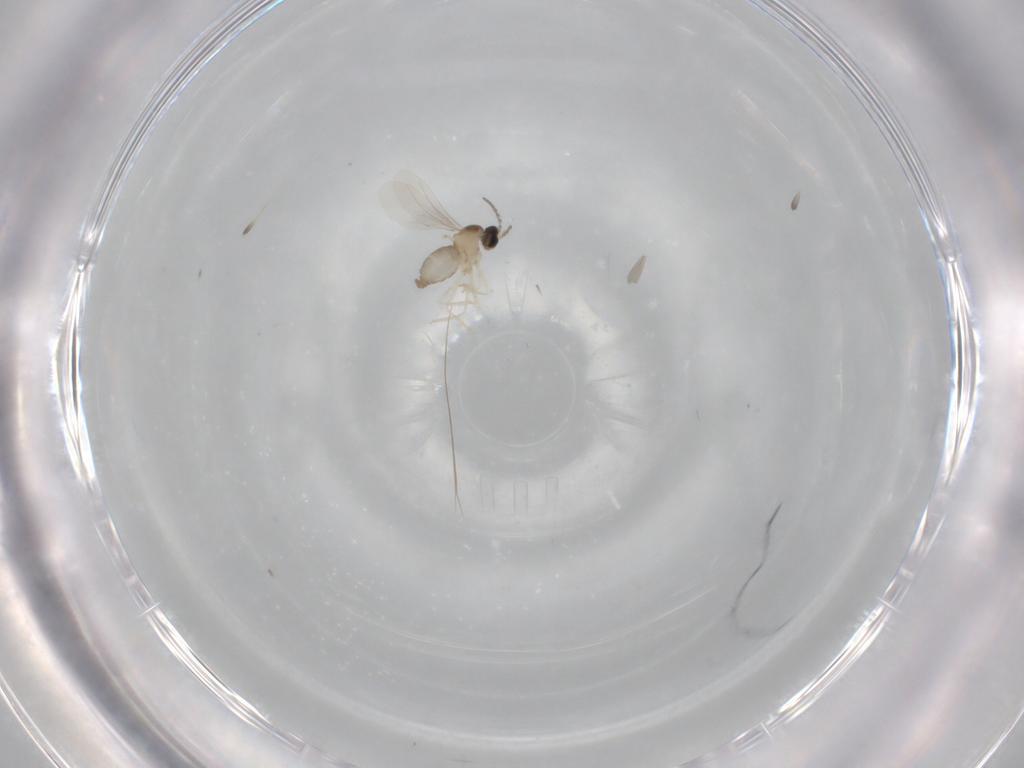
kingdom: Animalia
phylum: Arthropoda
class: Insecta
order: Diptera
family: Cecidomyiidae
